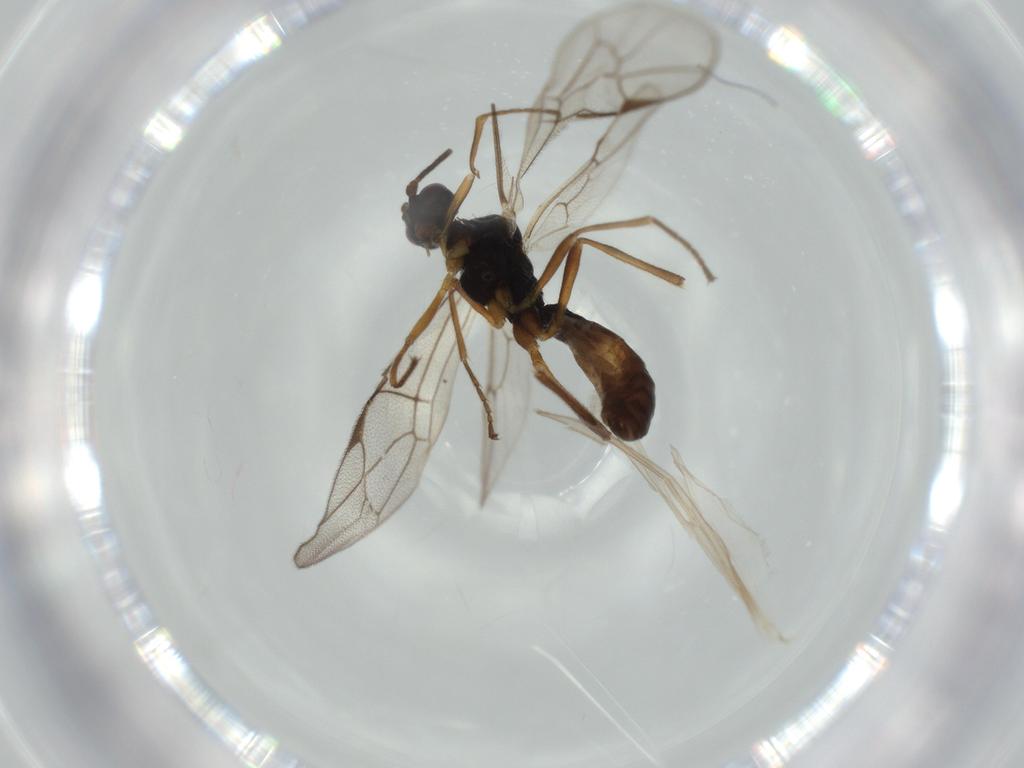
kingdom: Animalia
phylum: Arthropoda
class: Insecta
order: Hymenoptera
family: Ichneumonidae
